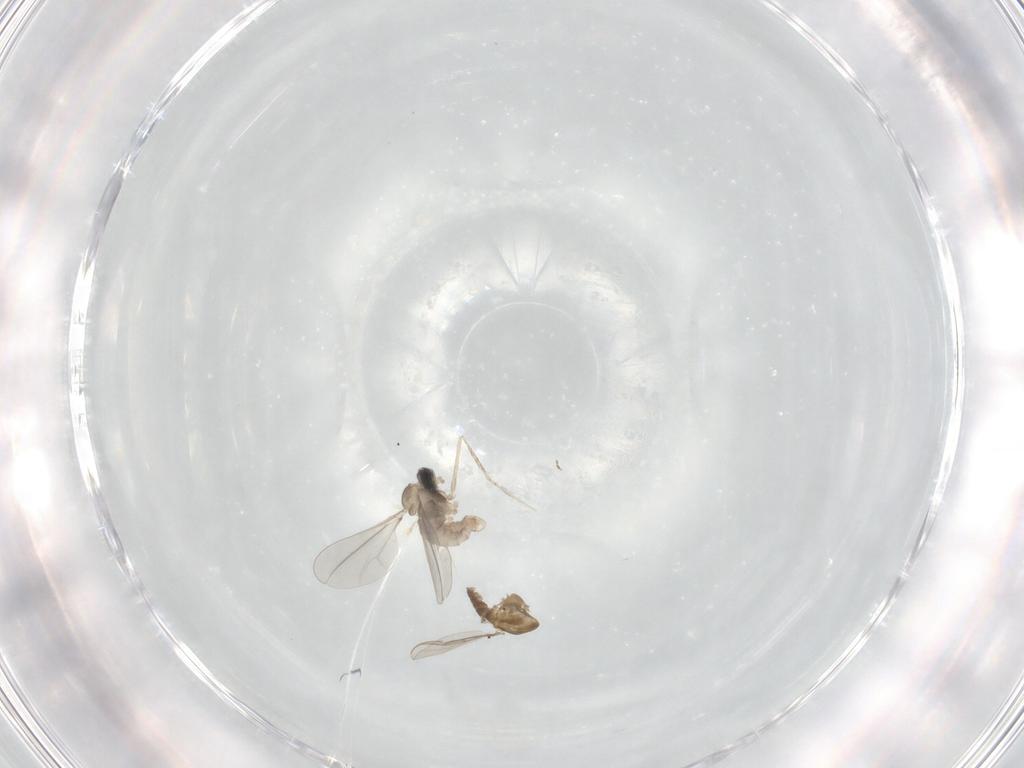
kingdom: Animalia
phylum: Arthropoda
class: Insecta
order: Diptera
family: Cecidomyiidae
